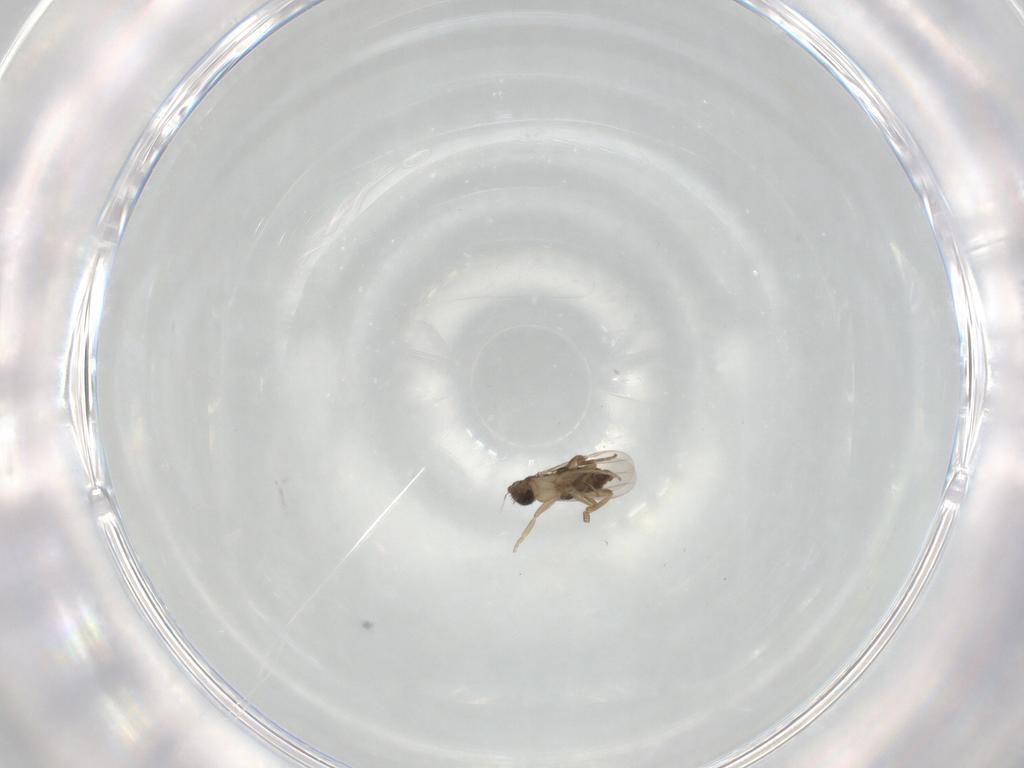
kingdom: Animalia
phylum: Arthropoda
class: Insecta
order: Diptera
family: Phoridae
